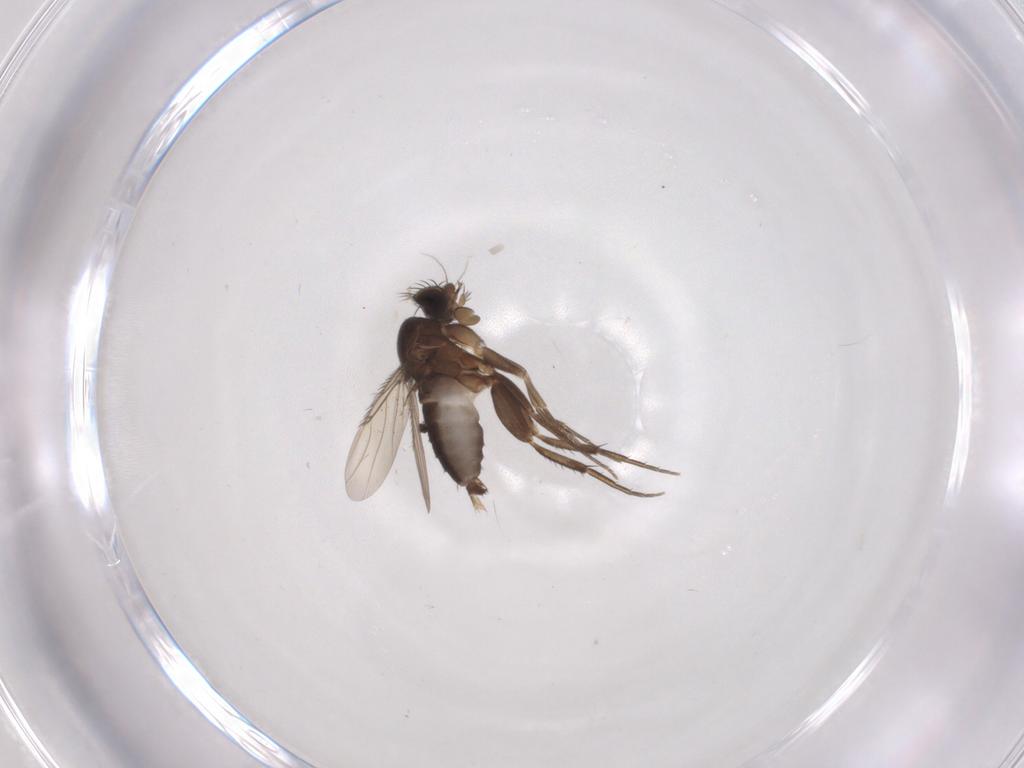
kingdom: Animalia
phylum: Arthropoda
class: Insecta
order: Diptera
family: Phoridae
